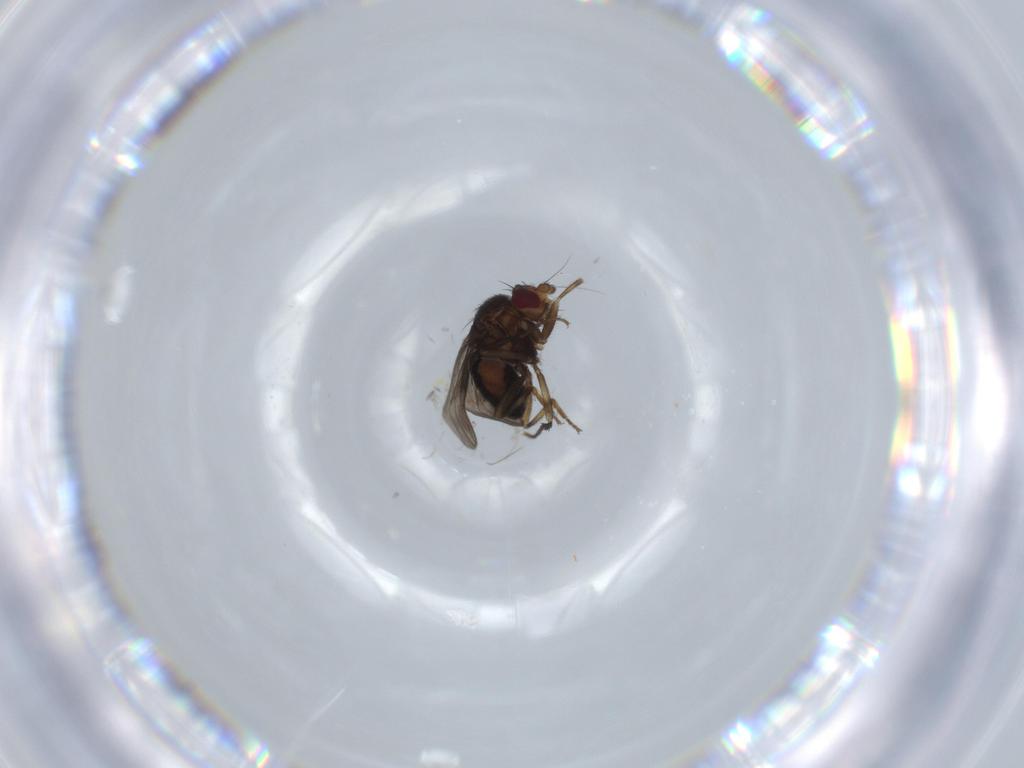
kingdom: Animalia
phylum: Arthropoda
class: Insecta
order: Diptera
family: Sphaeroceridae
